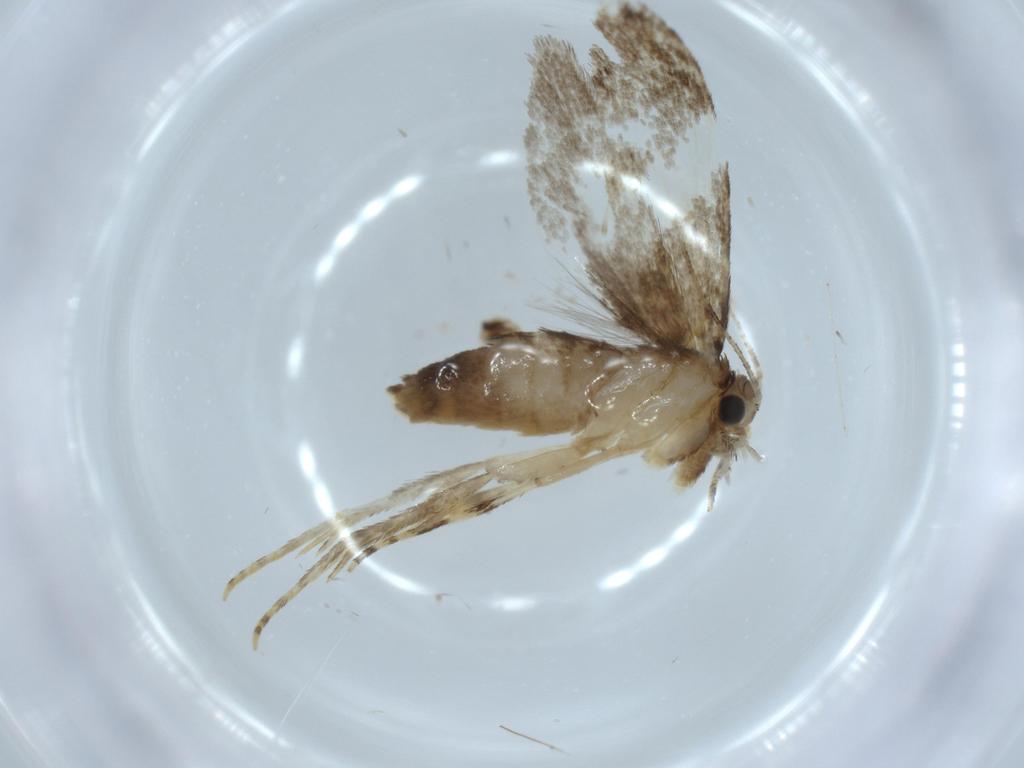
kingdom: Animalia
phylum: Arthropoda
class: Insecta
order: Lepidoptera
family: Tineidae
